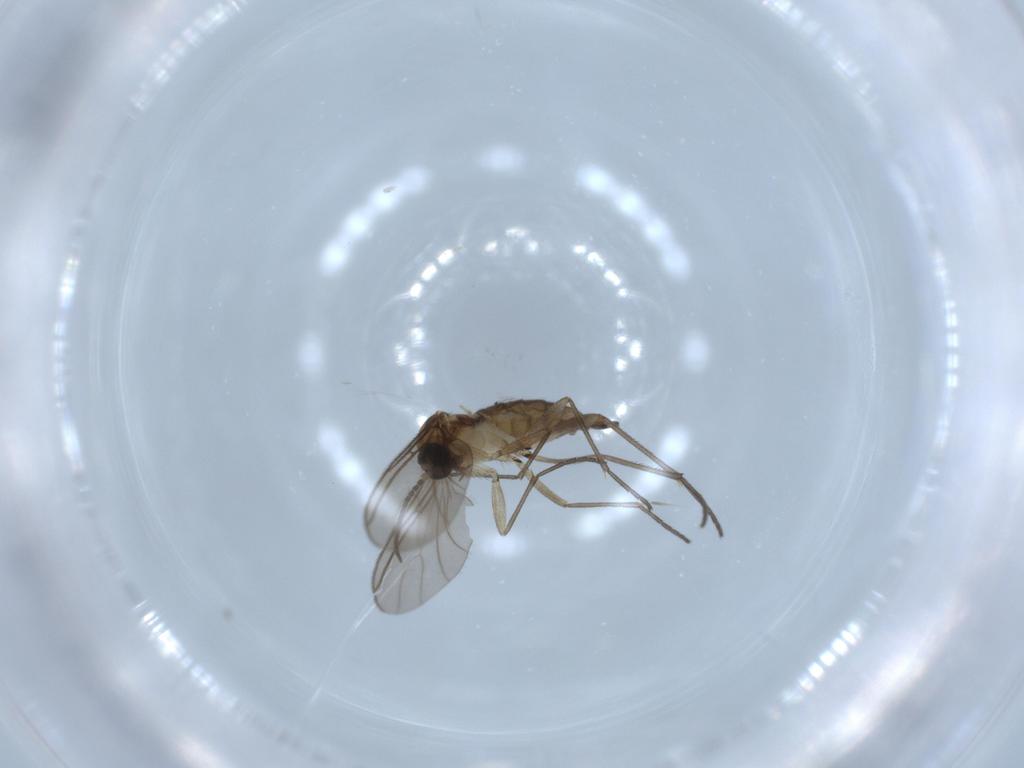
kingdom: Animalia
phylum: Arthropoda
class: Insecta
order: Diptera
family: Sciaridae
